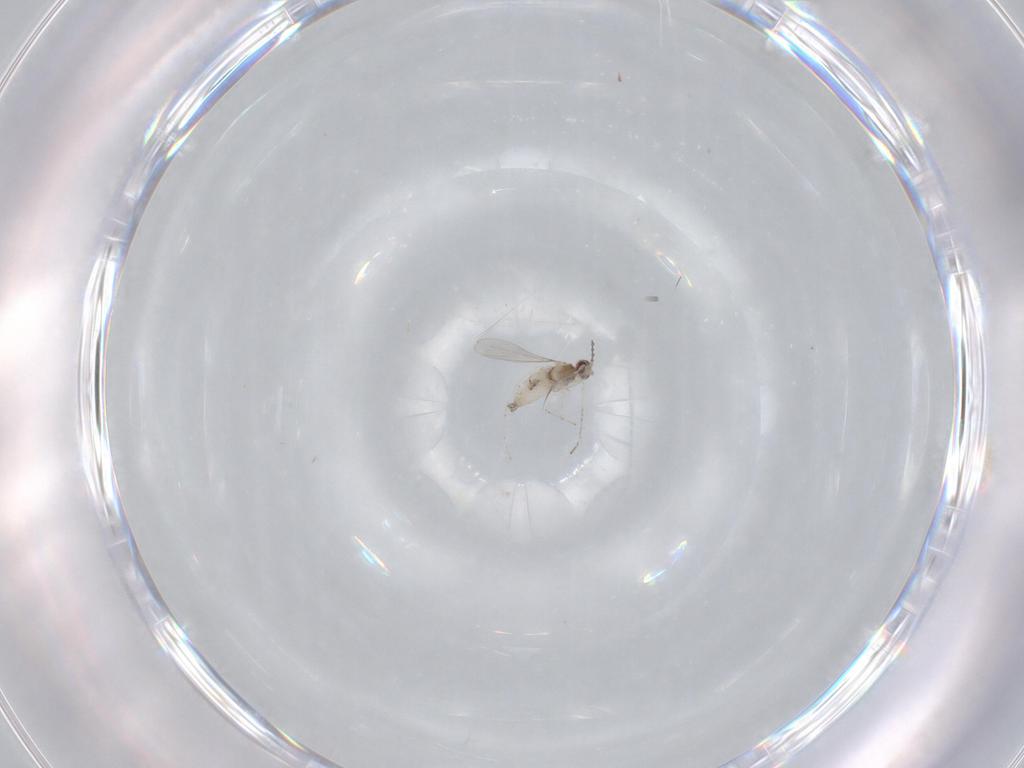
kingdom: Animalia
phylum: Arthropoda
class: Insecta
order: Diptera
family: Cecidomyiidae
